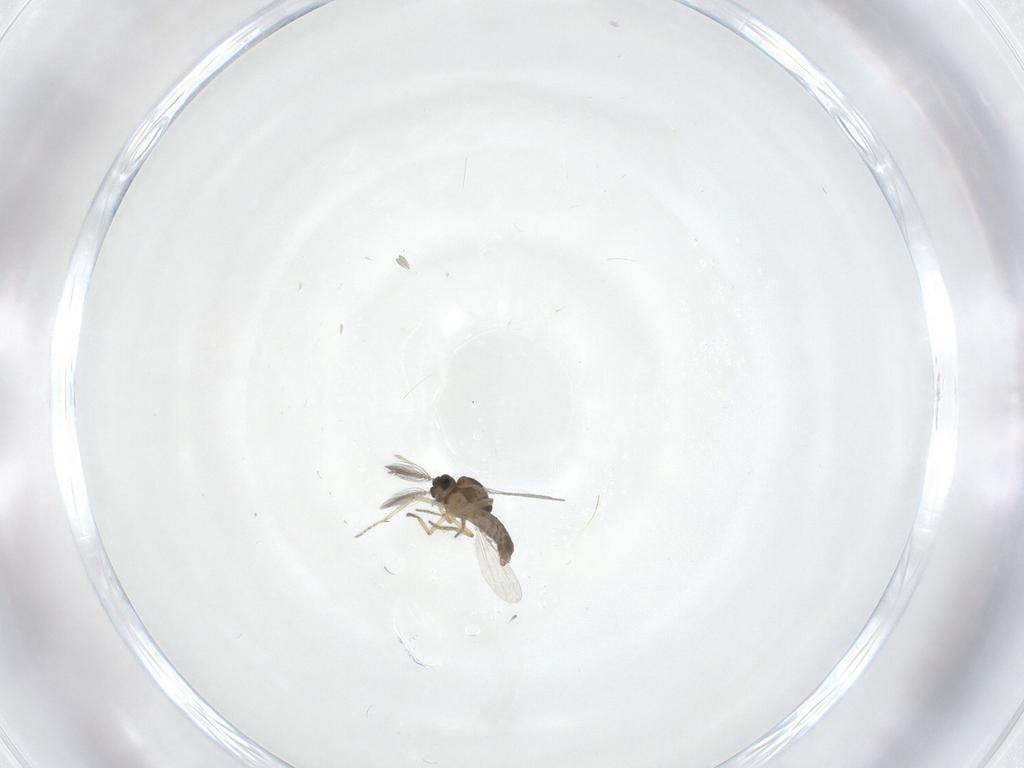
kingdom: Animalia
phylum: Arthropoda
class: Insecta
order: Diptera
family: Ceratopogonidae
